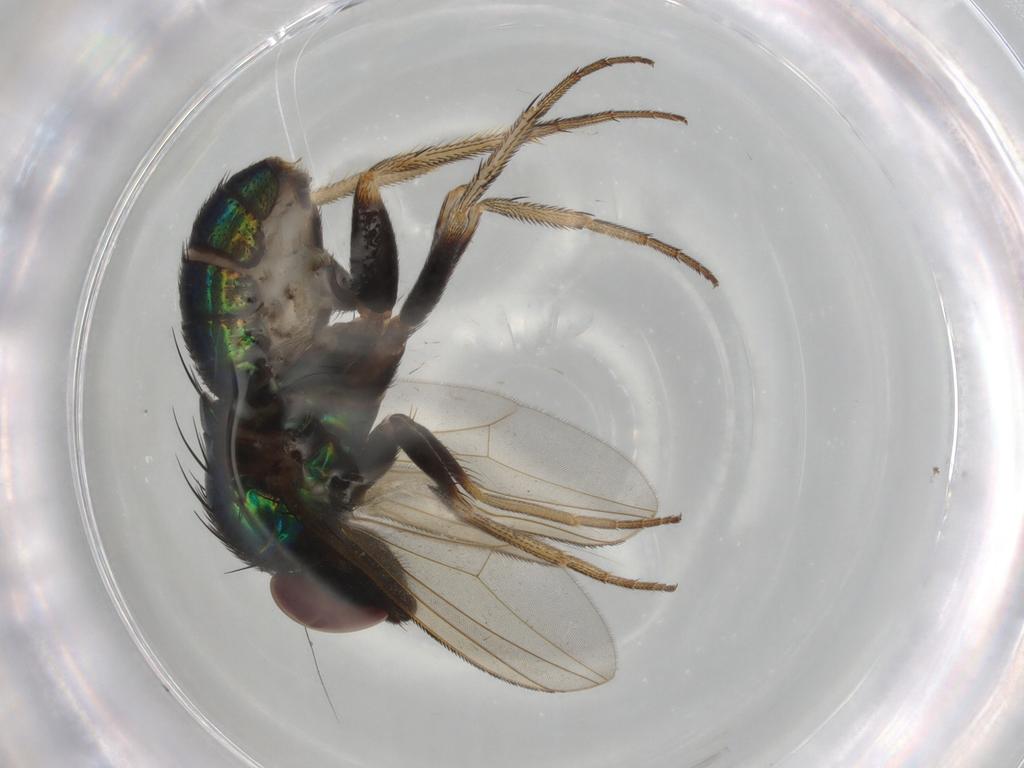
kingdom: Animalia
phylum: Arthropoda
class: Insecta
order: Diptera
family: Dolichopodidae
